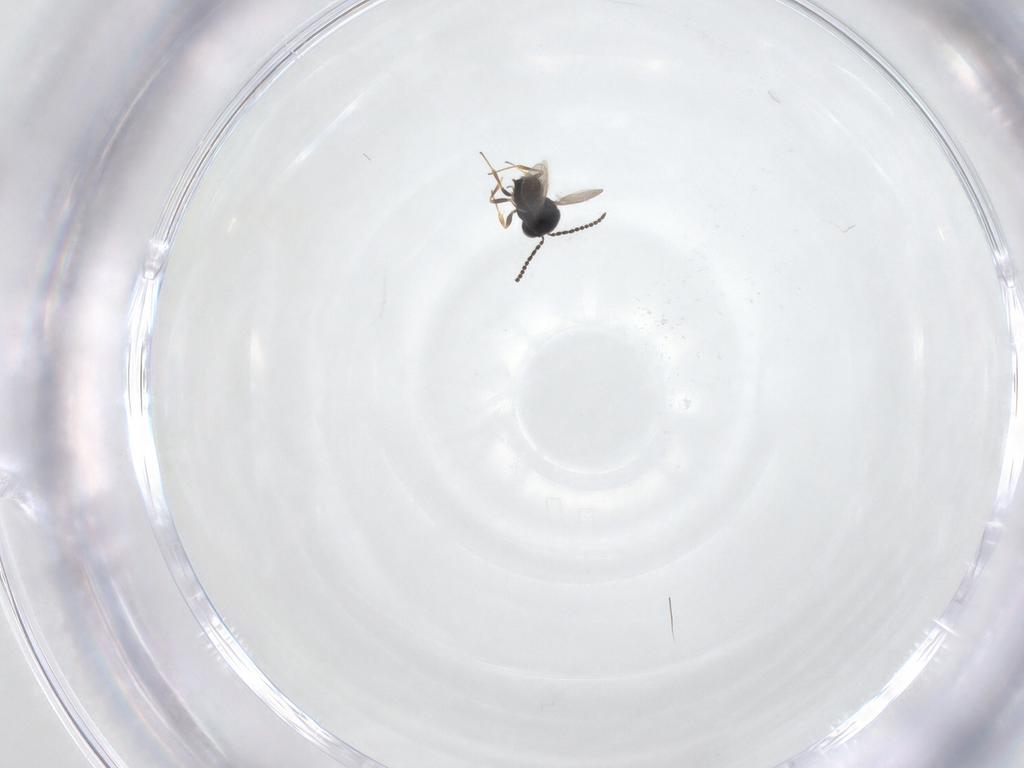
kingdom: Animalia
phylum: Arthropoda
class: Insecta
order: Hymenoptera
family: Scelionidae
